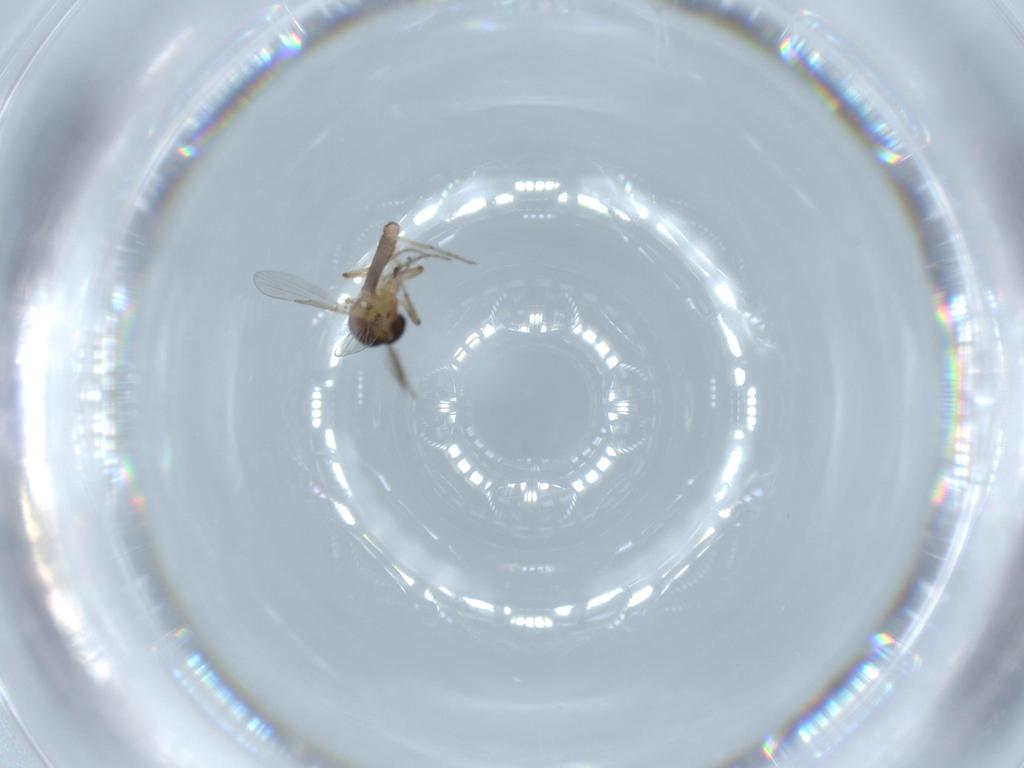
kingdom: Animalia
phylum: Arthropoda
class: Insecta
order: Diptera
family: Ceratopogonidae
